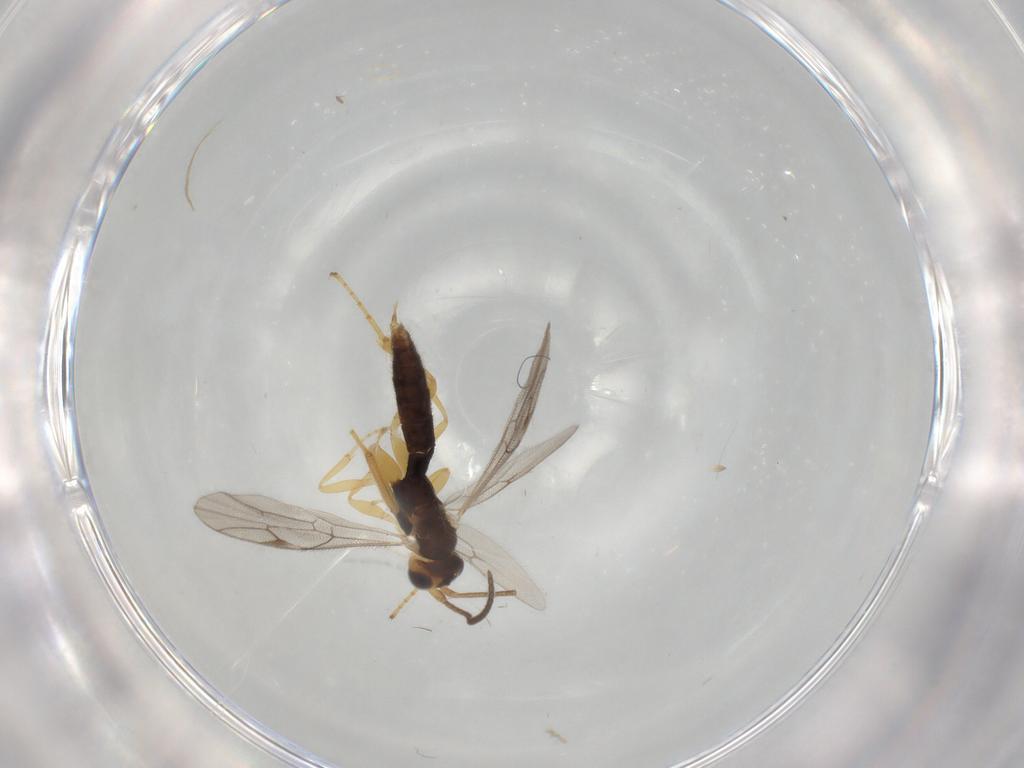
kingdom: Animalia
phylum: Arthropoda
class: Insecta
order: Hymenoptera
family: Ichneumonidae
